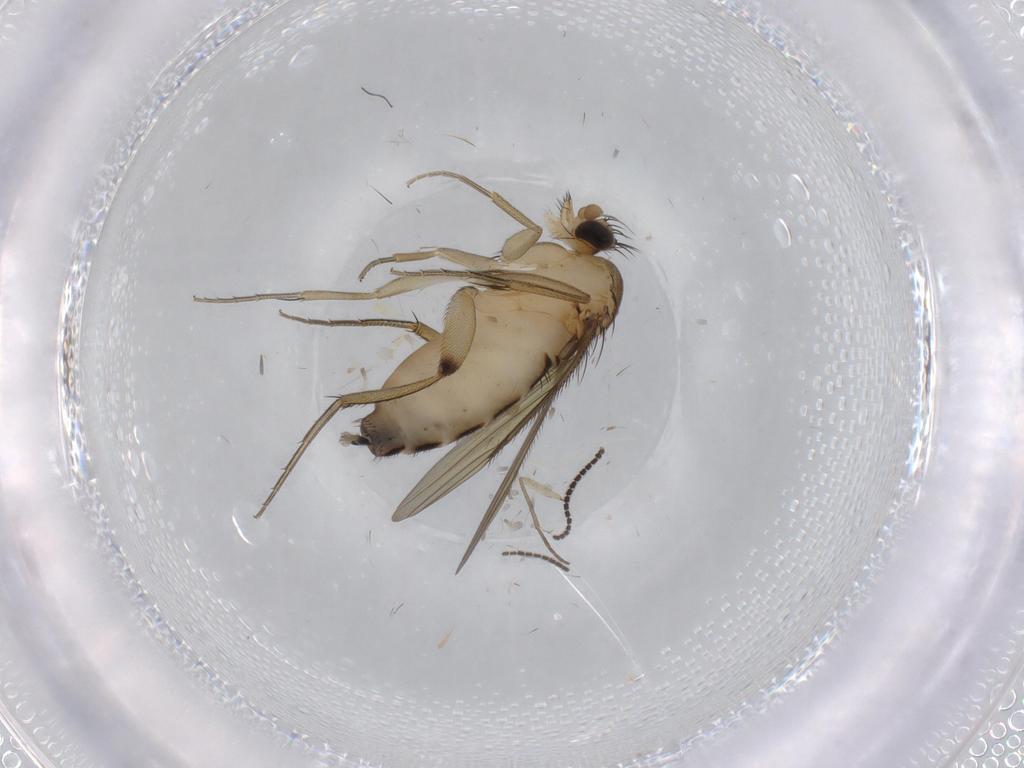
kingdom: Animalia
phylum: Arthropoda
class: Insecta
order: Diptera
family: Phoridae
